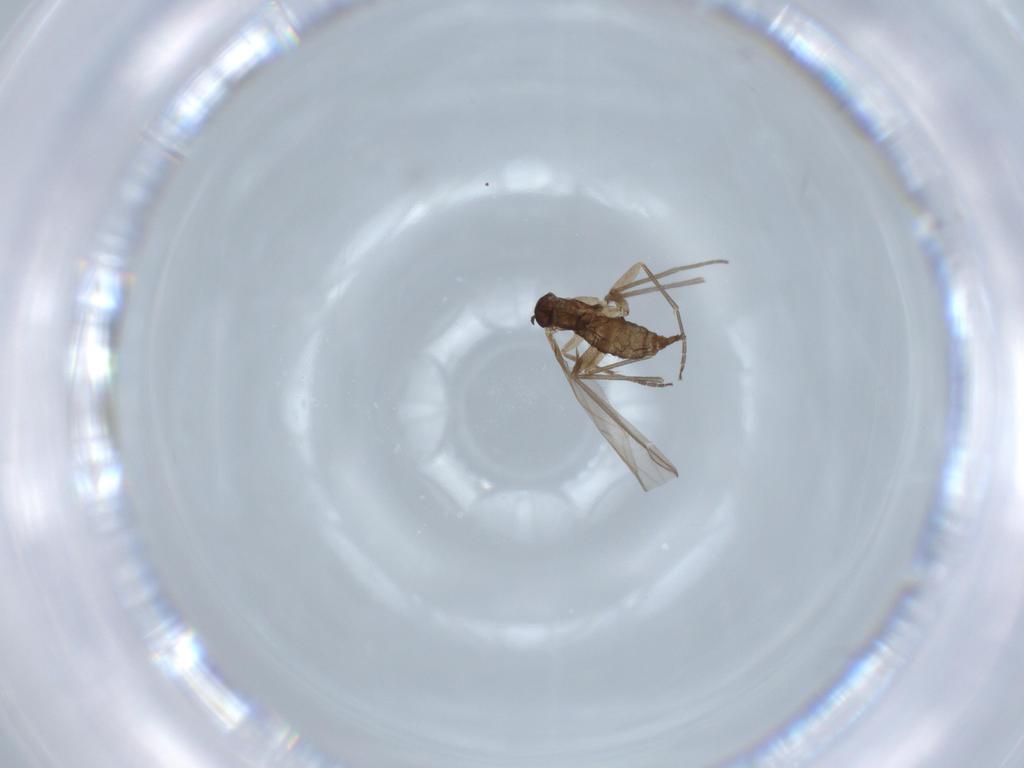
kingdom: Animalia
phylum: Arthropoda
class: Insecta
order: Diptera
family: Sciaridae
